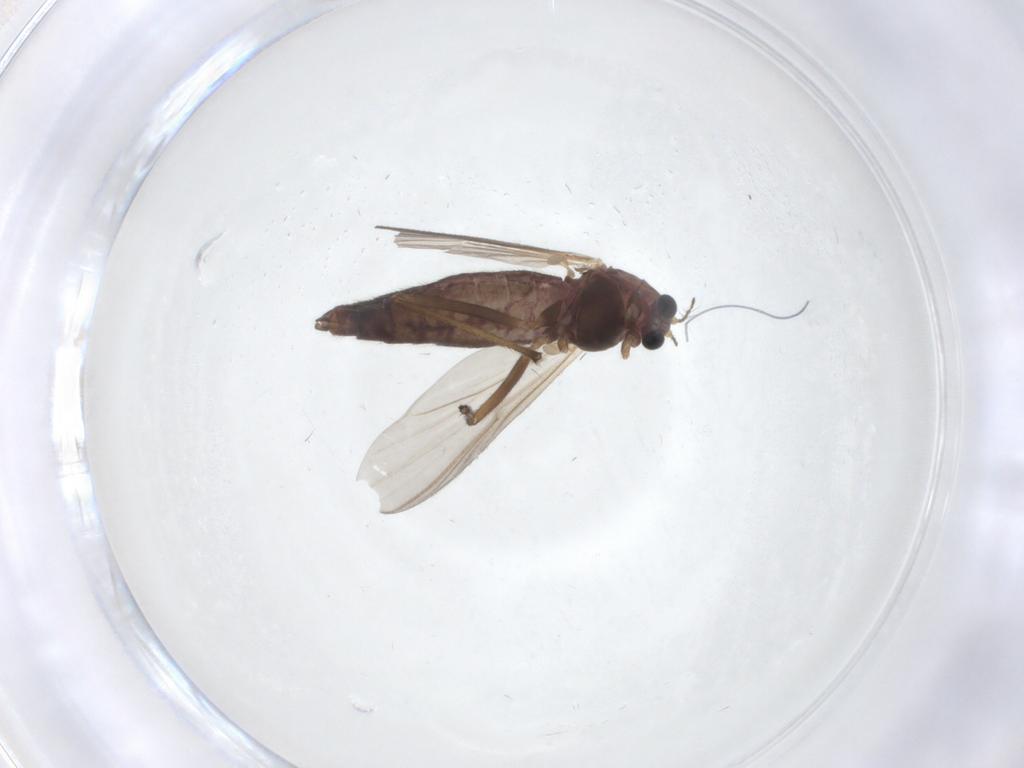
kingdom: Animalia
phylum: Arthropoda
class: Insecta
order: Diptera
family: Chironomidae
